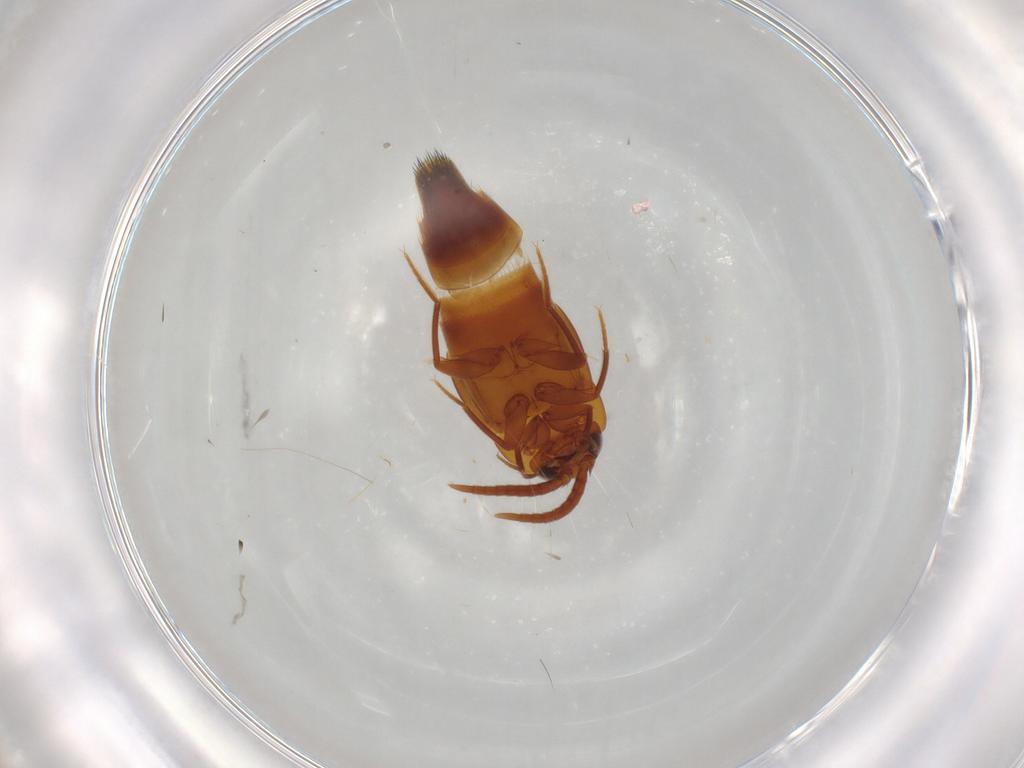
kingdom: Animalia
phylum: Arthropoda
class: Insecta
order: Coleoptera
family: Staphylinidae
